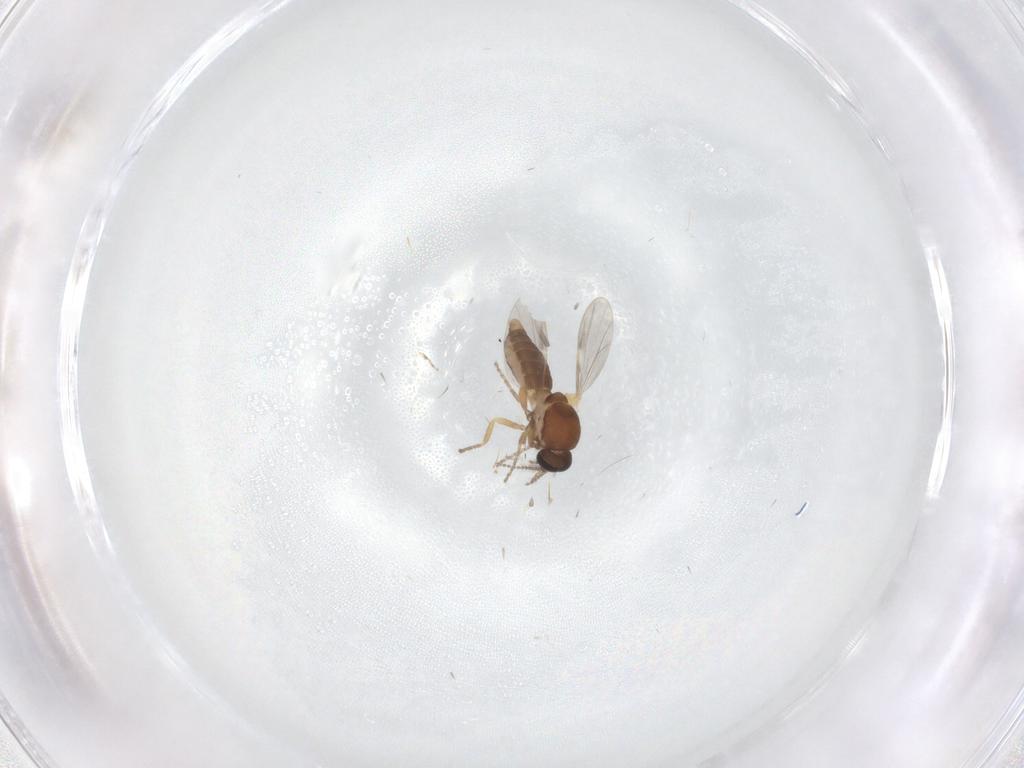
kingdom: Animalia
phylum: Arthropoda
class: Insecta
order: Diptera
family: Ceratopogonidae
